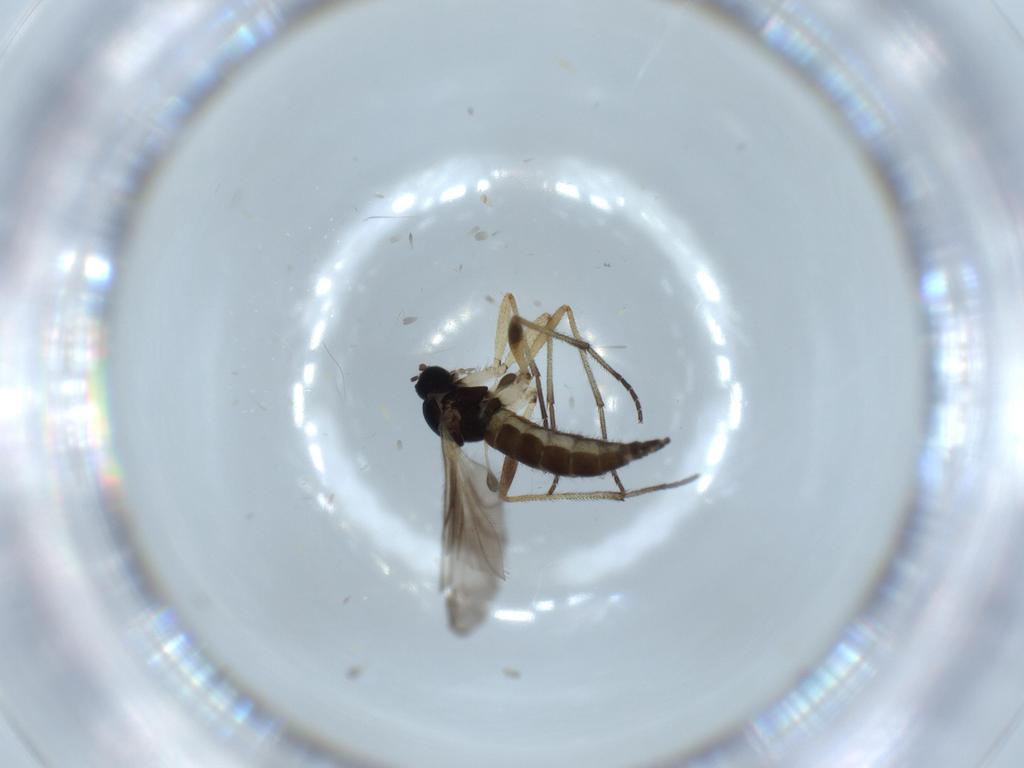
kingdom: Animalia
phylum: Arthropoda
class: Insecta
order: Diptera
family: Sciaridae
